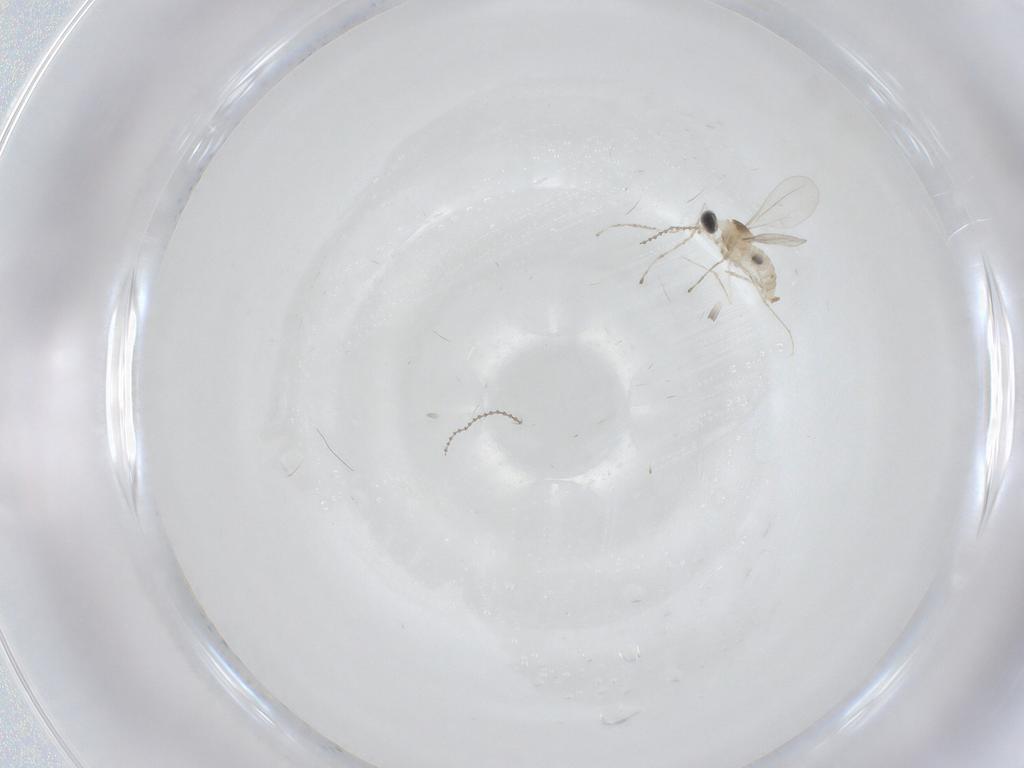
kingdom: Animalia
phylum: Arthropoda
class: Insecta
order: Diptera
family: Cecidomyiidae
